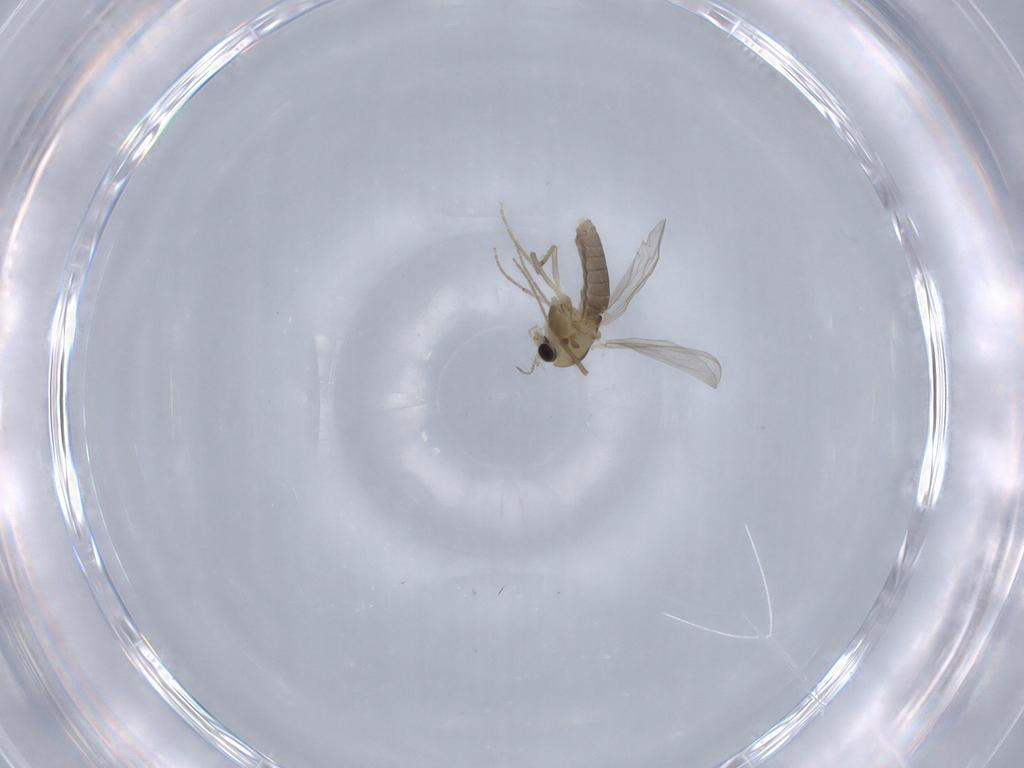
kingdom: Animalia
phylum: Arthropoda
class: Insecta
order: Diptera
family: Chironomidae
